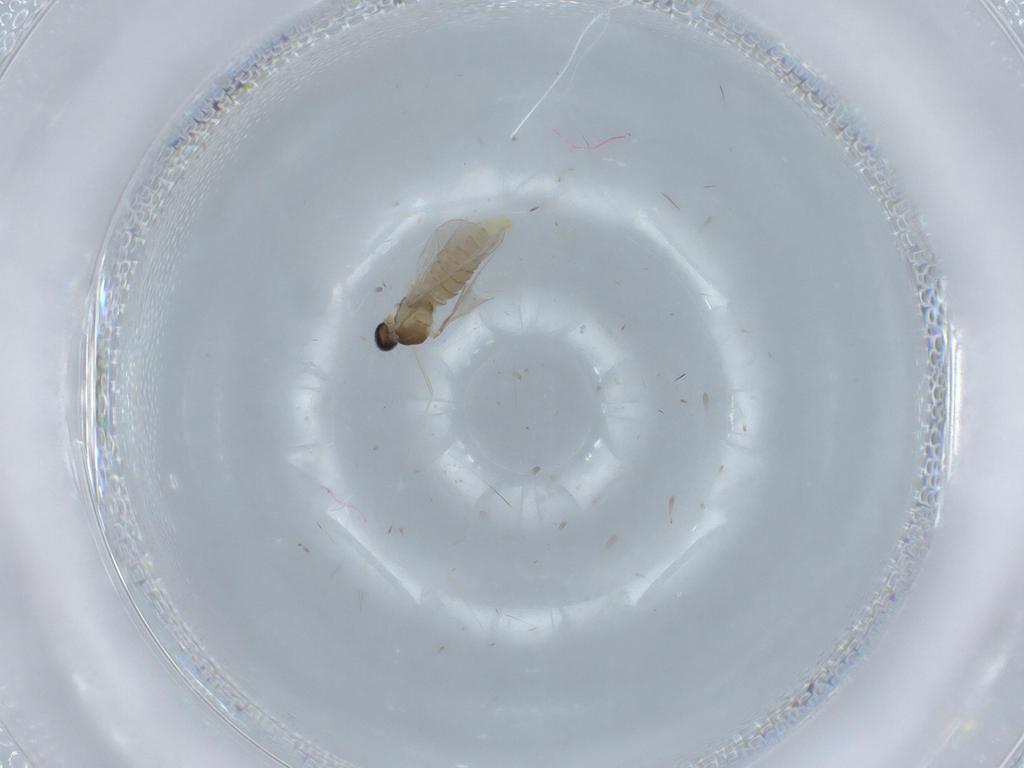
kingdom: Animalia
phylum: Arthropoda
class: Insecta
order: Diptera
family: Cecidomyiidae
